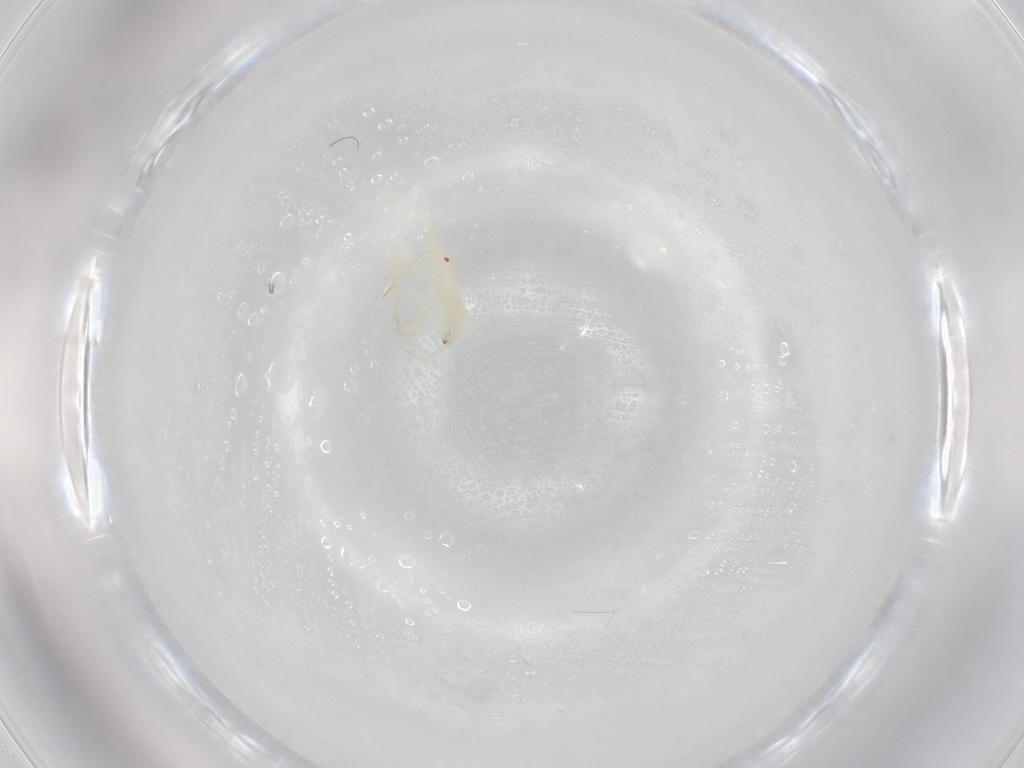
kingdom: Animalia
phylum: Arthropoda
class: Insecta
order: Hemiptera
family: Miridae
